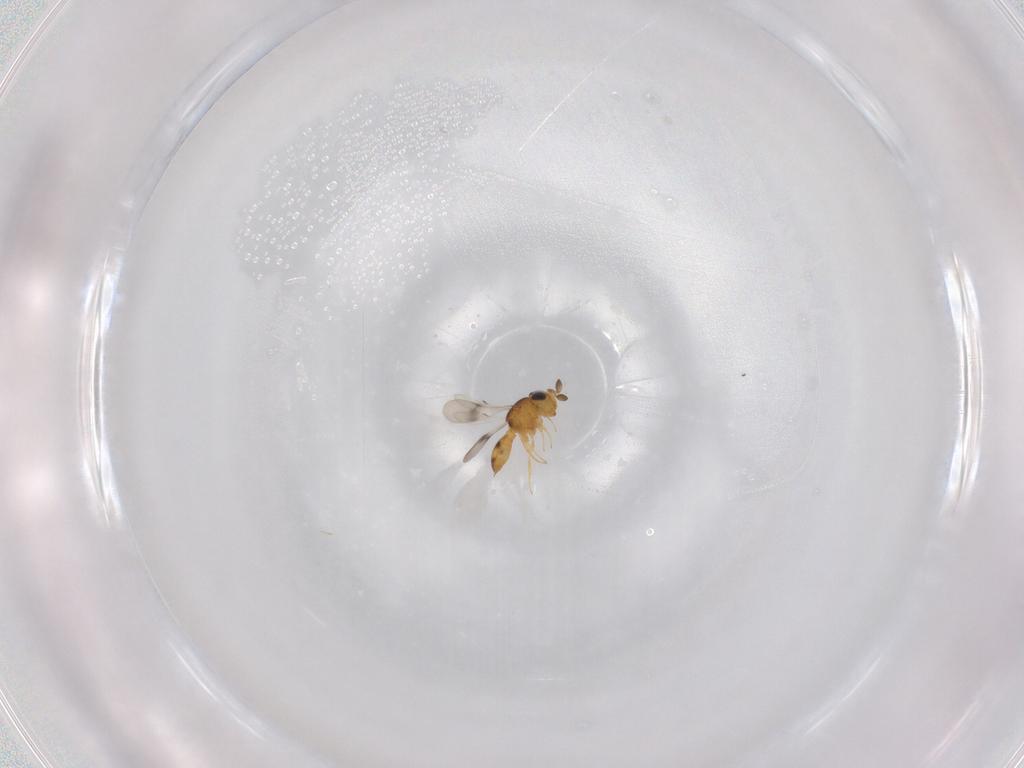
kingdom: Animalia
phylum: Arthropoda
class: Insecta
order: Hymenoptera
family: Scelionidae
